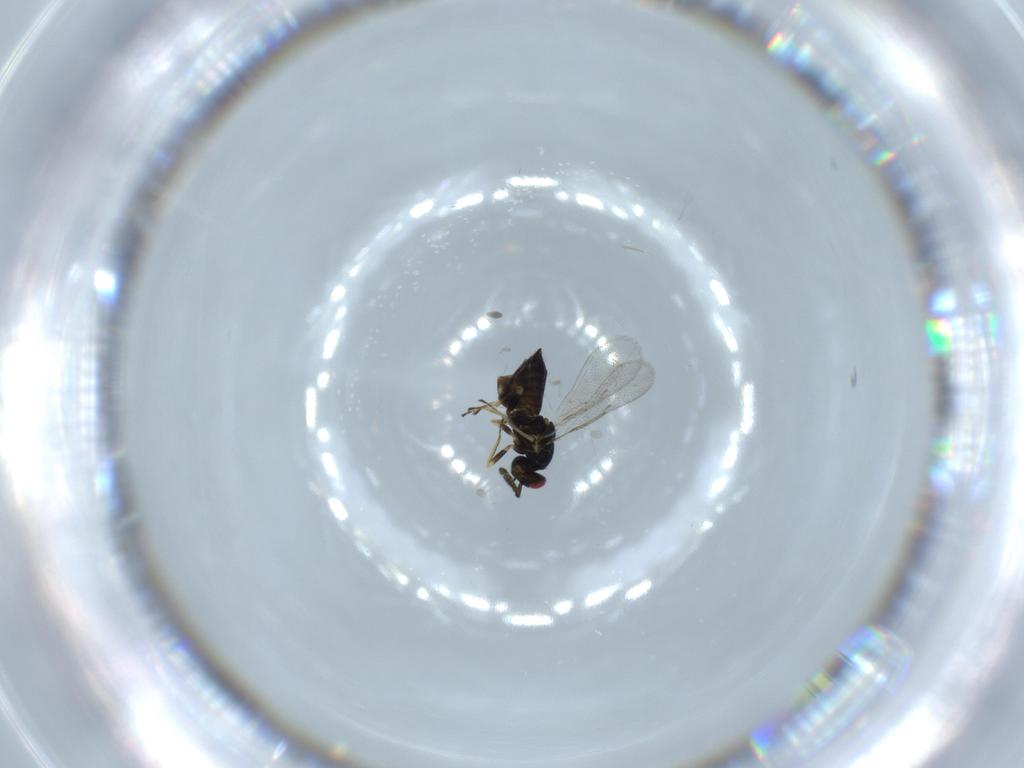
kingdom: Animalia
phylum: Arthropoda
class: Insecta
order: Hymenoptera
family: Eulophidae
